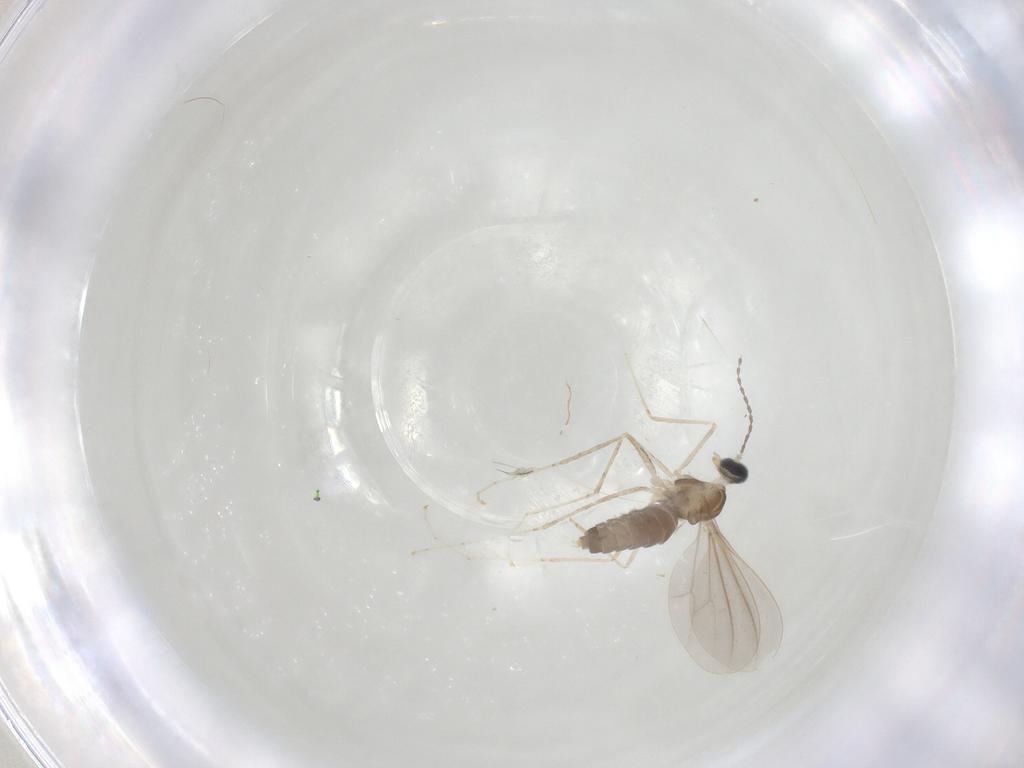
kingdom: Animalia
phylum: Arthropoda
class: Insecta
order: Diptera
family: Cecidomyiidae
